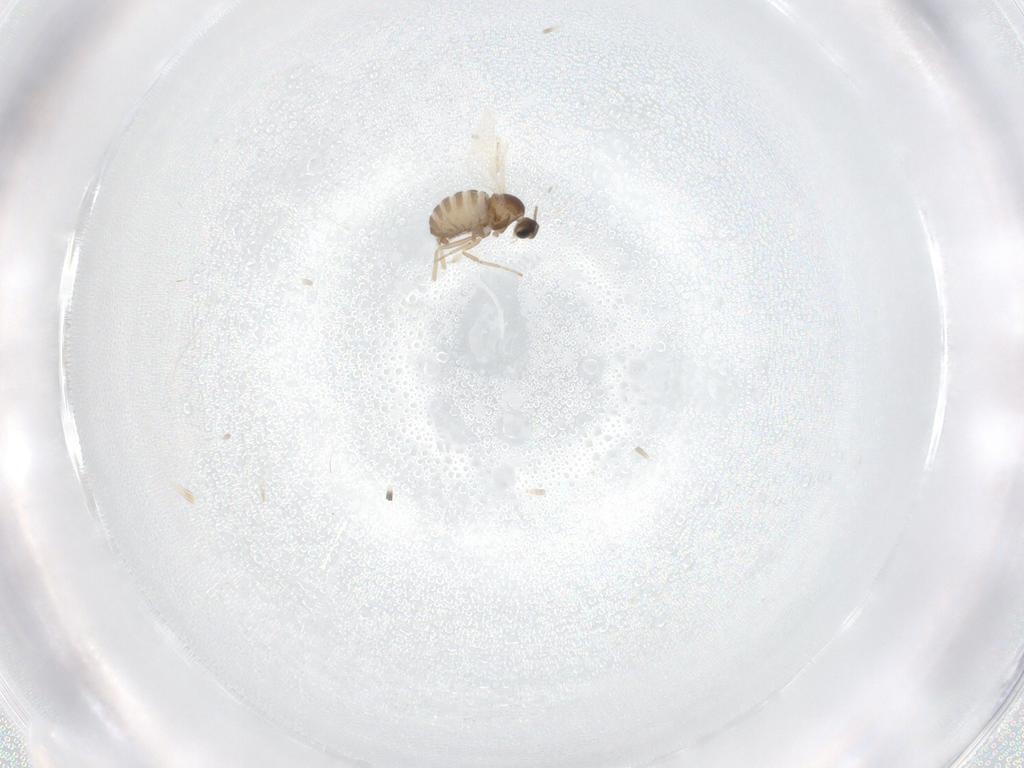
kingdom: Animalia
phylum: Arthropoda
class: Insecta
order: Diptera
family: Cecidomyiidae
